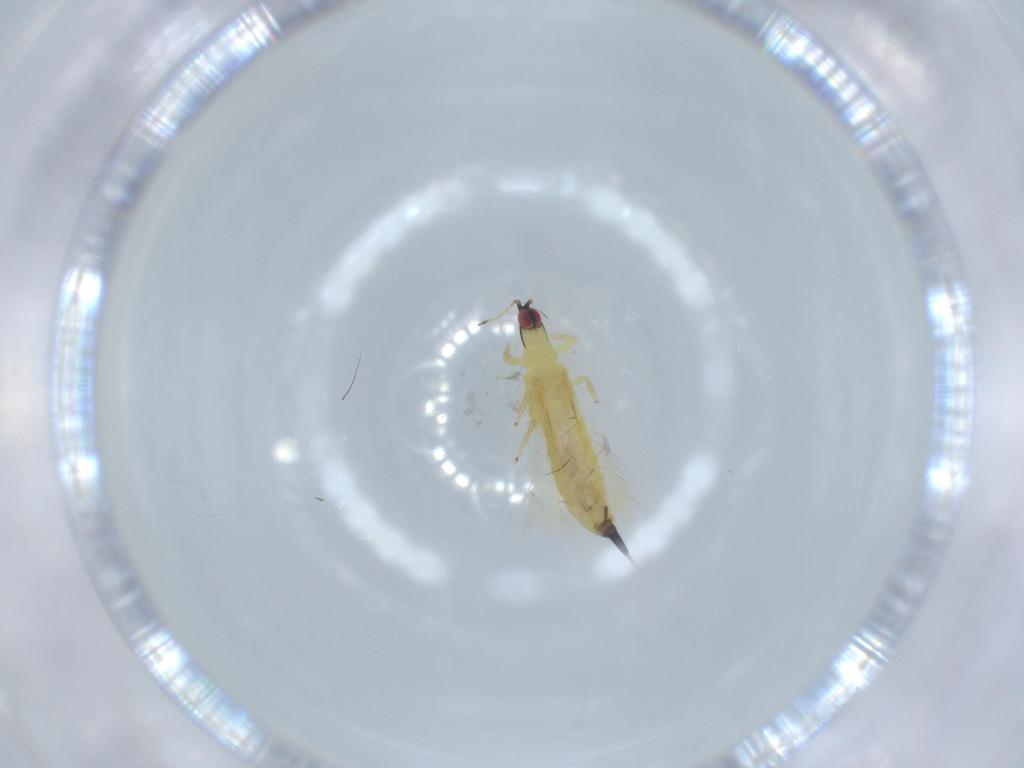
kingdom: Animalia
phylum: Arthropoda
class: Insecta
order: Thysanoptera
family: Phlaeothripidae
